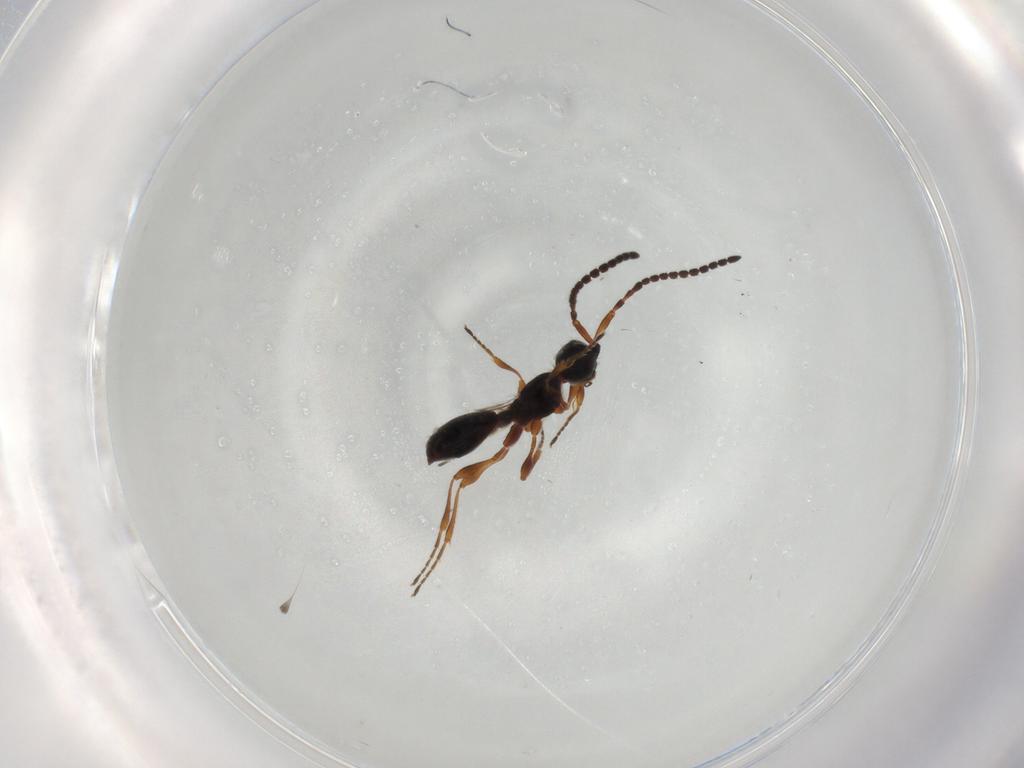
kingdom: Animalia
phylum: Arthropoda
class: Insecta
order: Hymenoptera
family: Diapriidae
